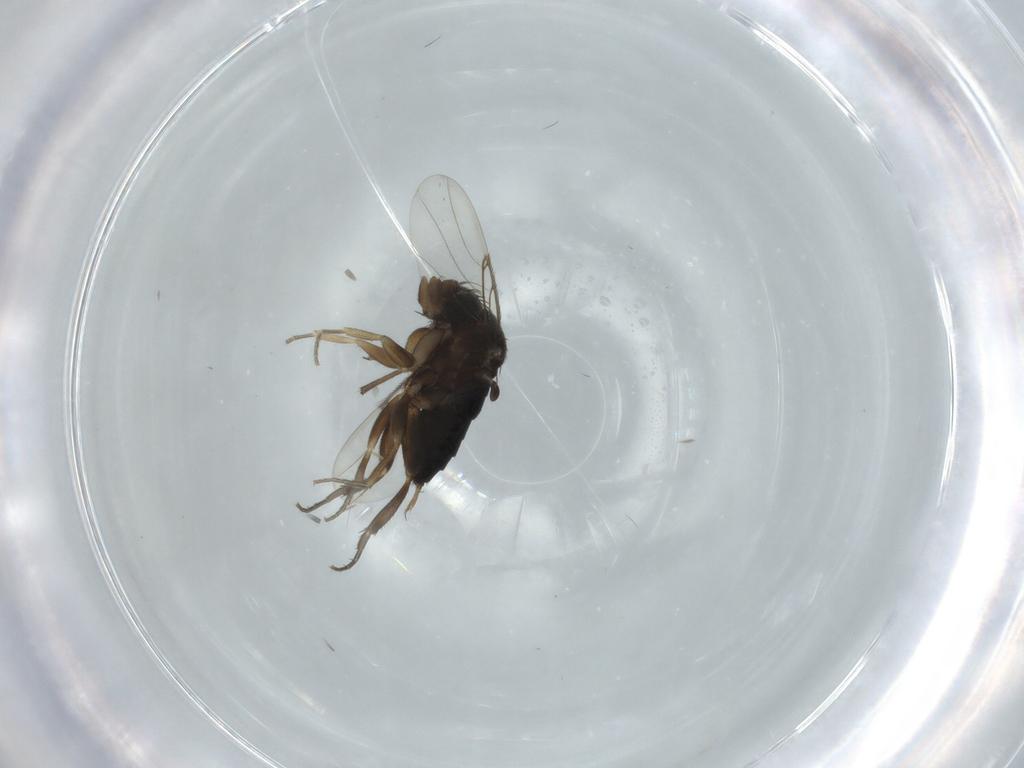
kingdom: Animalia
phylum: Arthropoda
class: Insecta
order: Diptera
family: Phoridae
